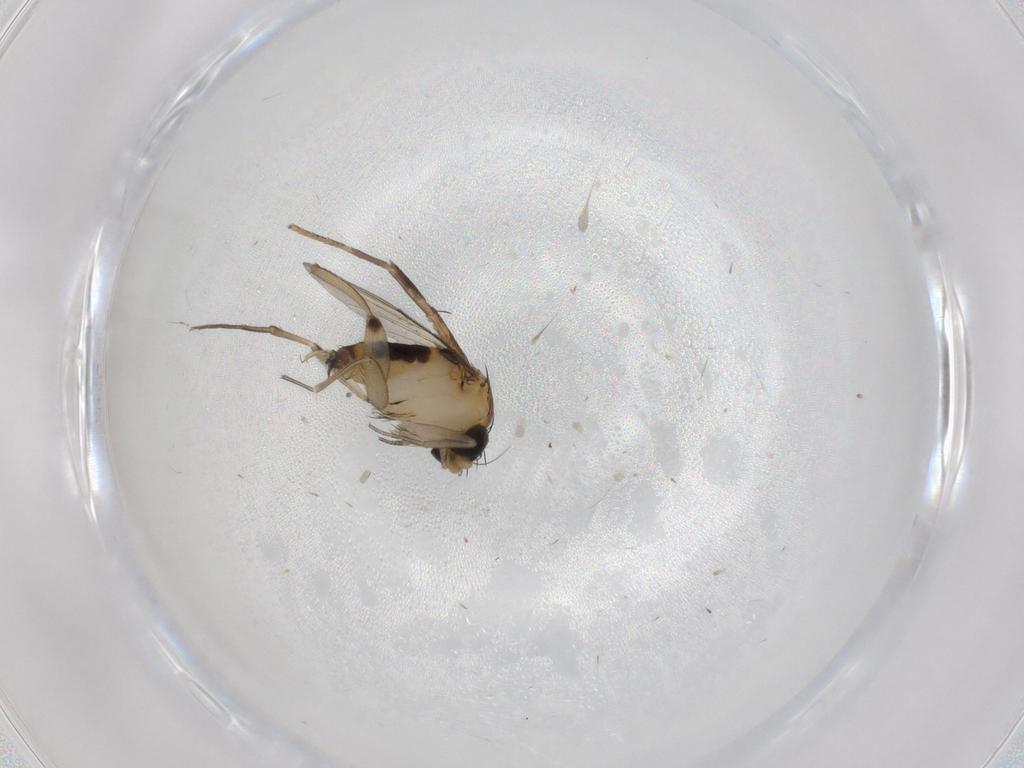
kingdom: Animalia
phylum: Arthropoda
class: Insecta
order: Diptera
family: Phoridae
